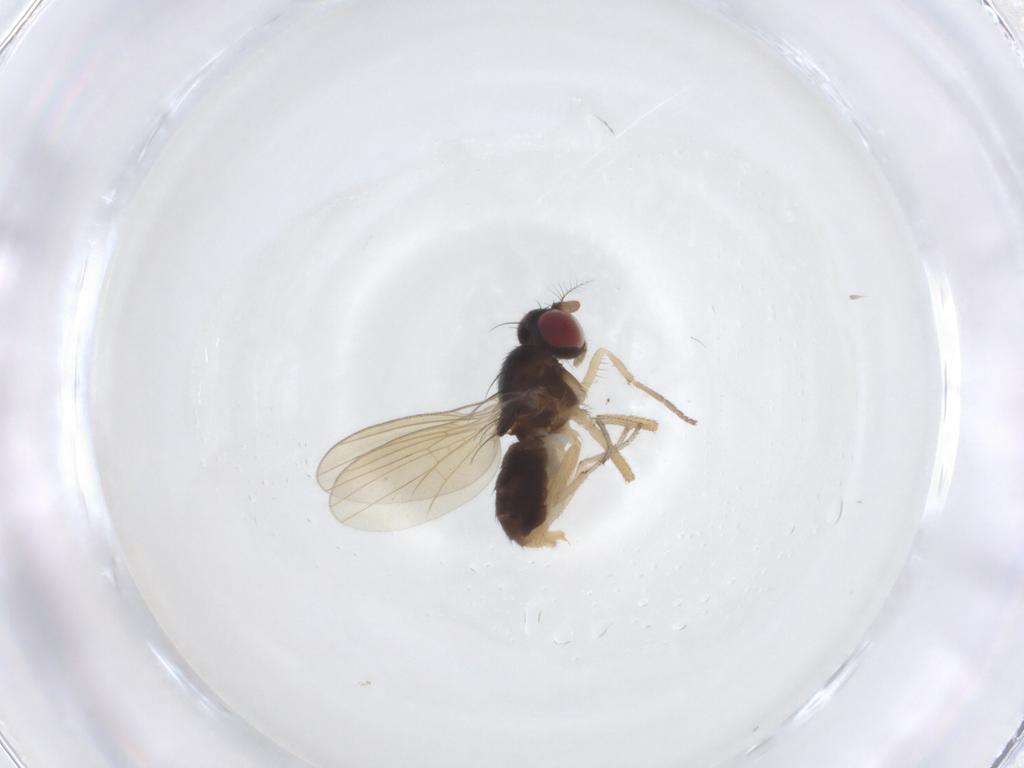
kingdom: Animalia
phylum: Arthropoda
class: Insecta
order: Diptera
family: Chironomidae
